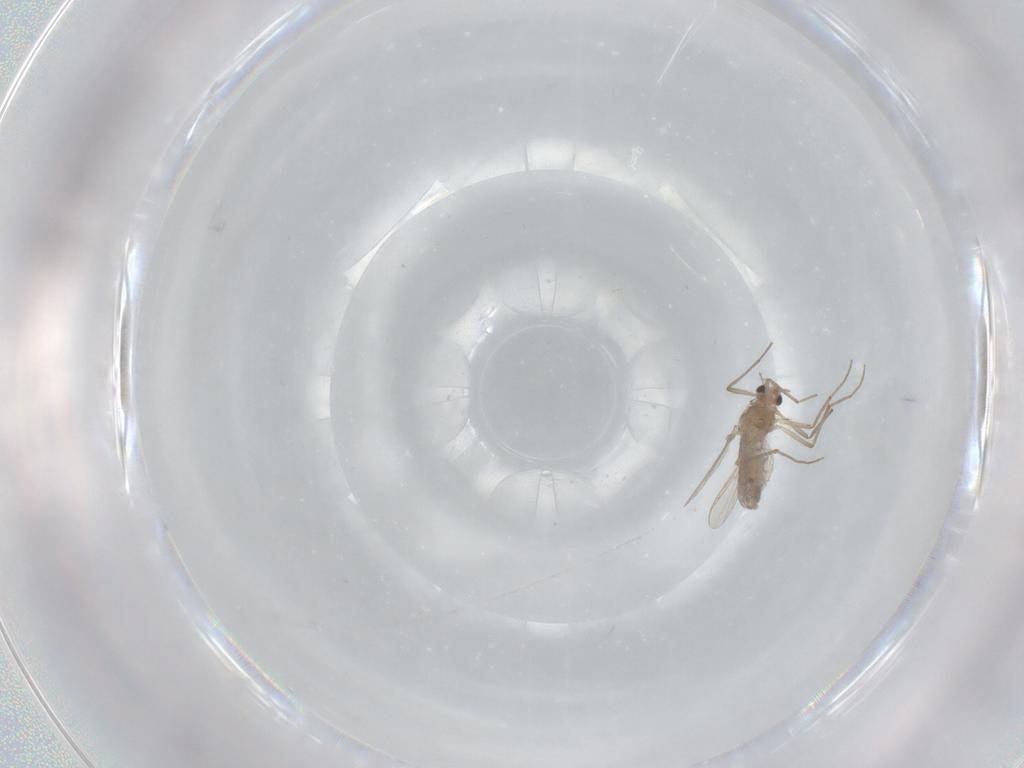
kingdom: Animalia
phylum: Arthropoda
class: Insecta
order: Diptera
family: Chironomidae
